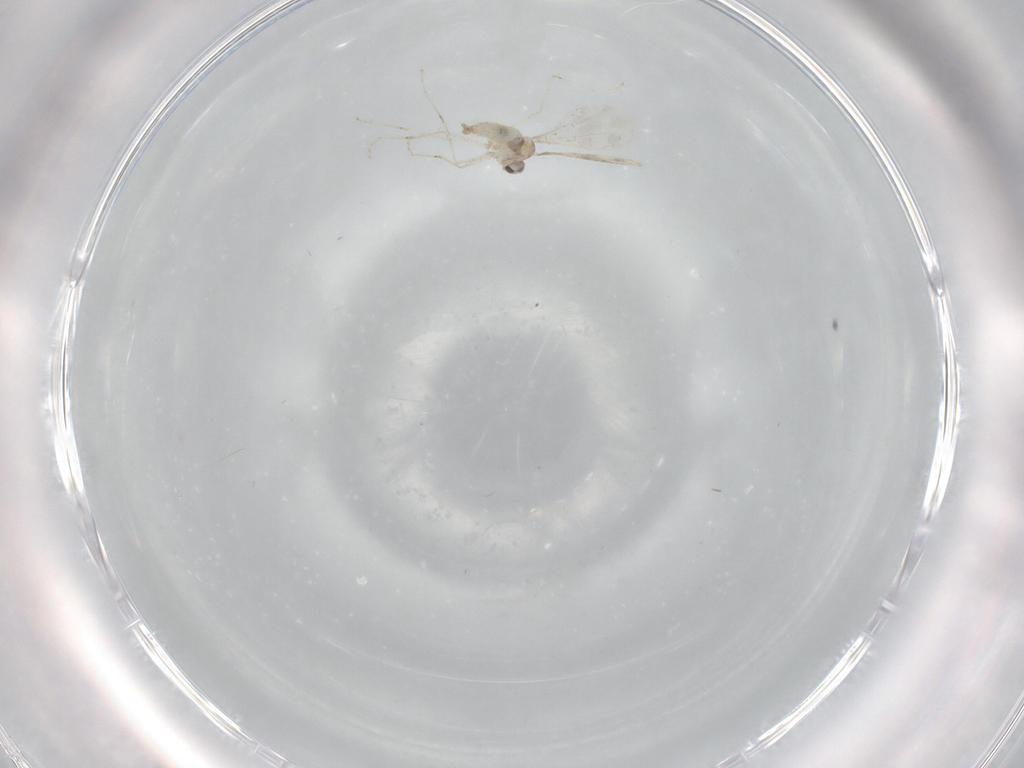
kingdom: Animalia
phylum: Arthropoda
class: Insecta
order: Diptera
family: Cecidomyiidae
